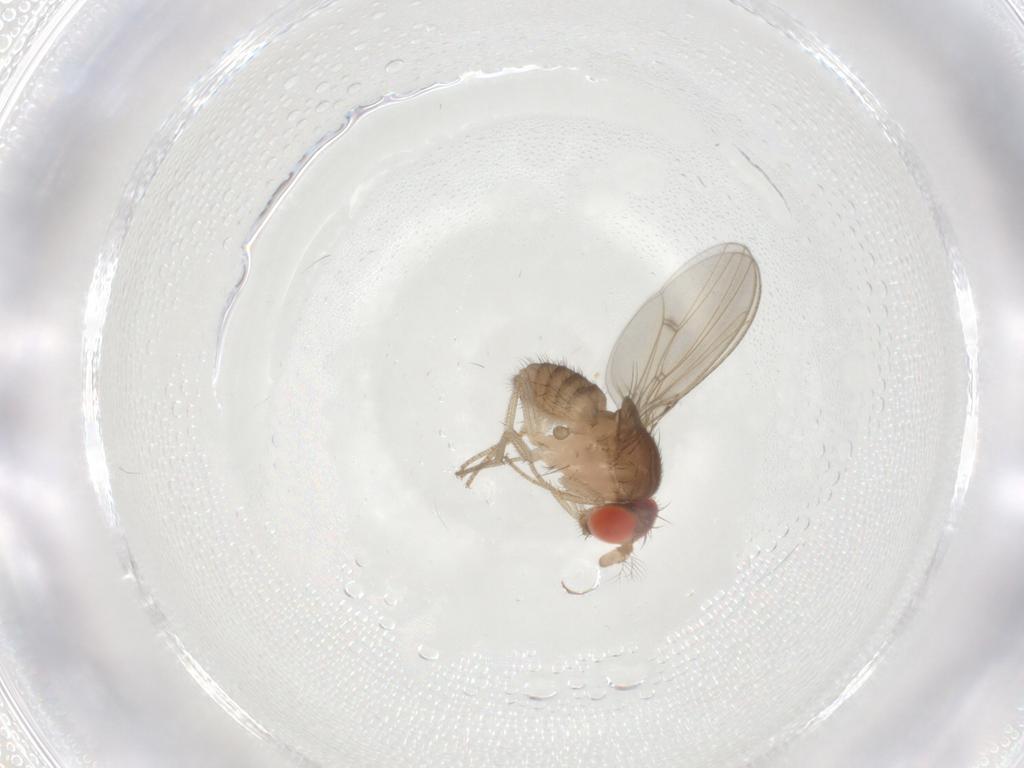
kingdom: Animalia
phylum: Arthropoda
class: Insecta
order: Diptera
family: Drosophilidae
